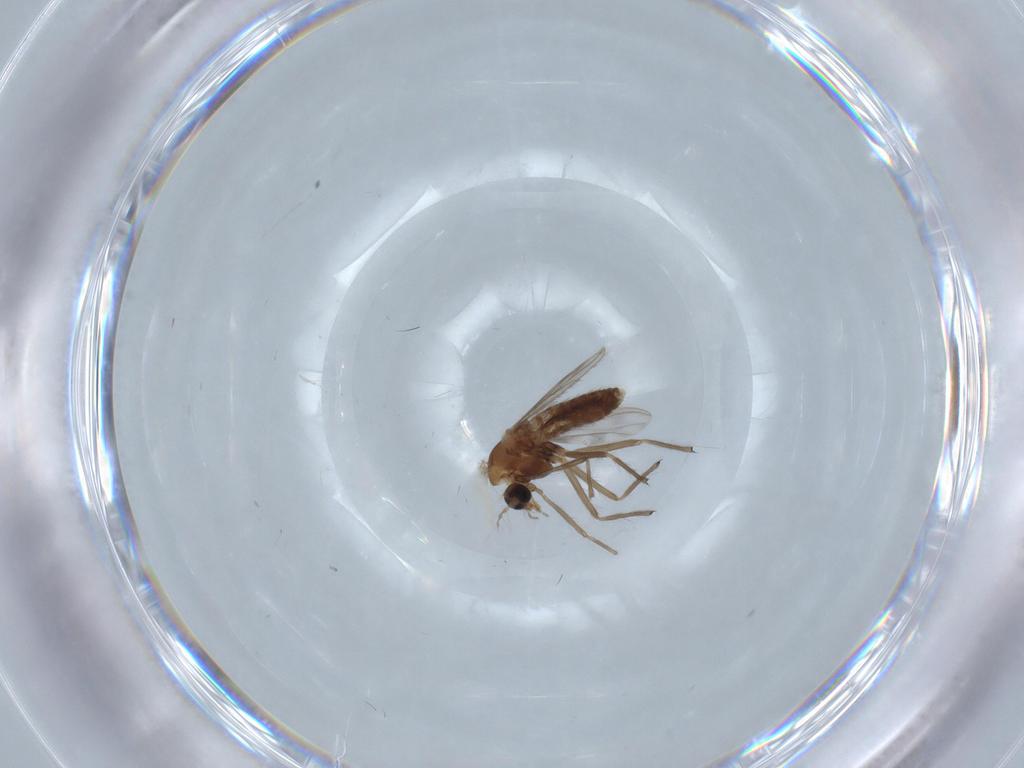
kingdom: Animalia
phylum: Arthropoda
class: Insecta
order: Diptera
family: Chironomidae
